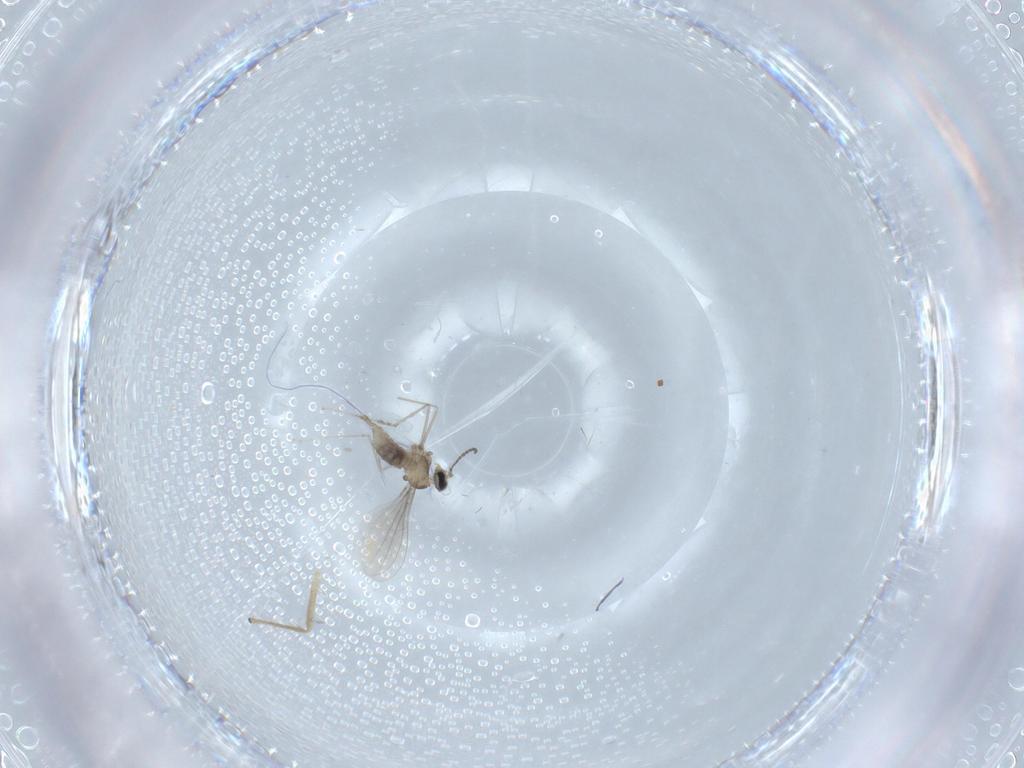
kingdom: Animalia
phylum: Arthropoda
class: Insecta
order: Diptera
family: Cecidomyiidae
